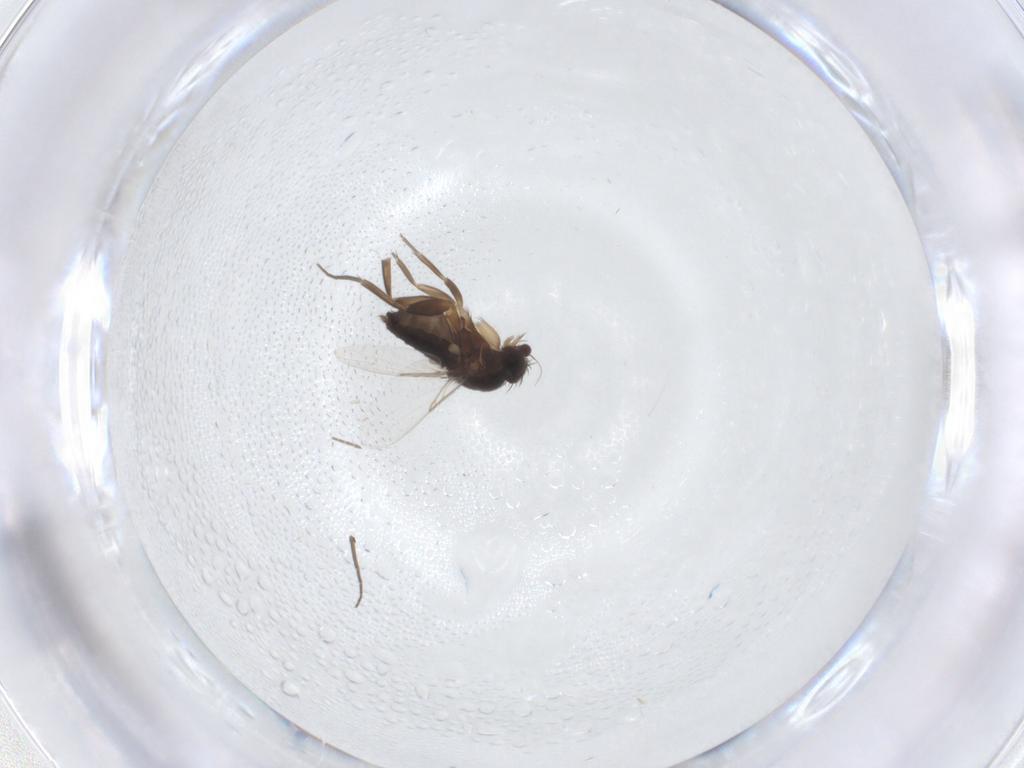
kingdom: Animalia
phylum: Arthropoda
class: Insecta
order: Diptera
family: Phoridae
